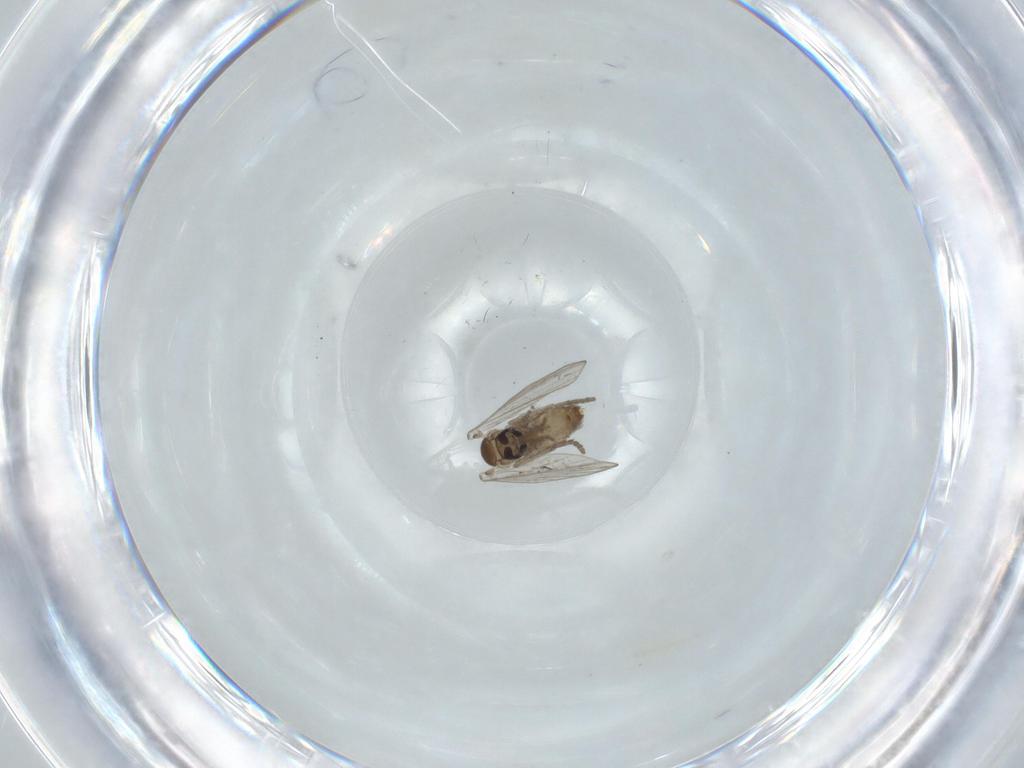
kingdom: Animalia
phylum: Arthropoda
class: Insecta
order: Diptera
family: Psychodidae
